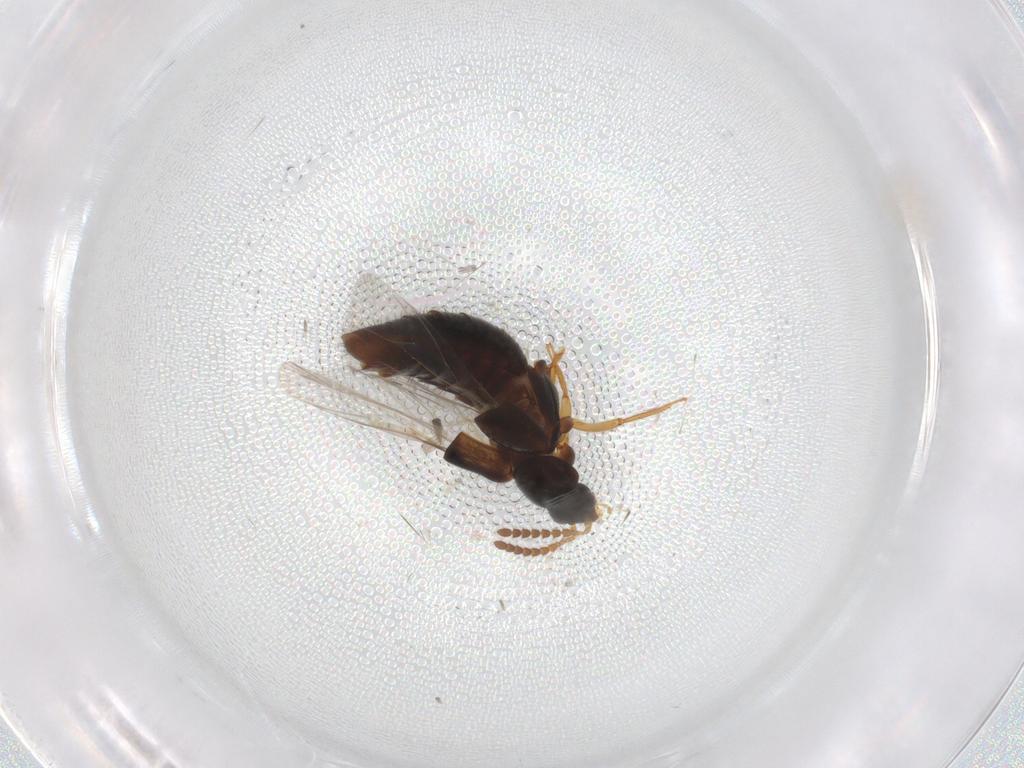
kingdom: Animalia
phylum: Arthropoda
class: Insecta
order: Coleoptera
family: Staphylinidae
